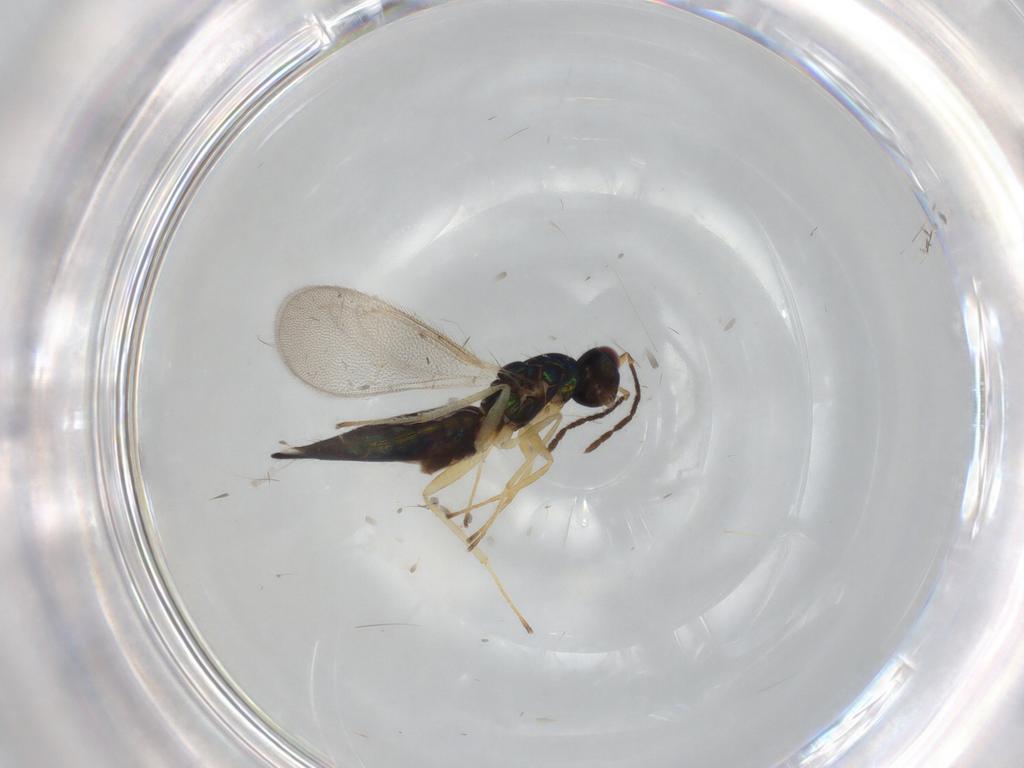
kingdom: Animalia
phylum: Arthropoda
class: Insecta
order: Hymenoptera
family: Eulophidae
